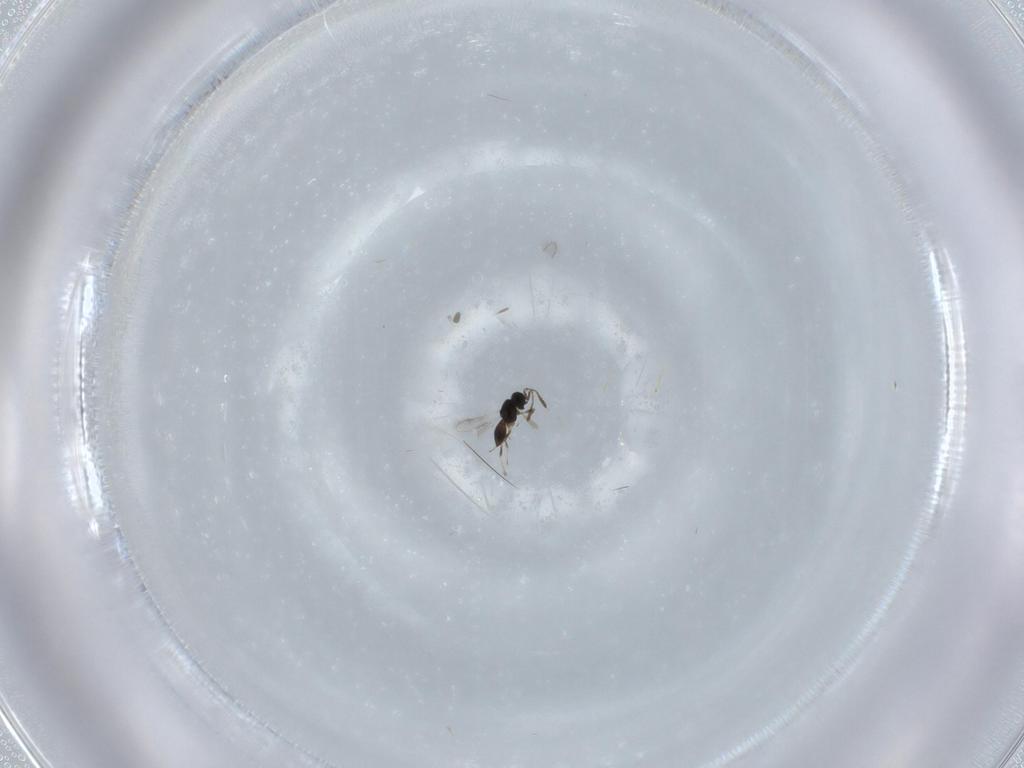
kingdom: Animalia
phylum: Arthropoda
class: Insecta
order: Hymenoptera
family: Scelionidae
